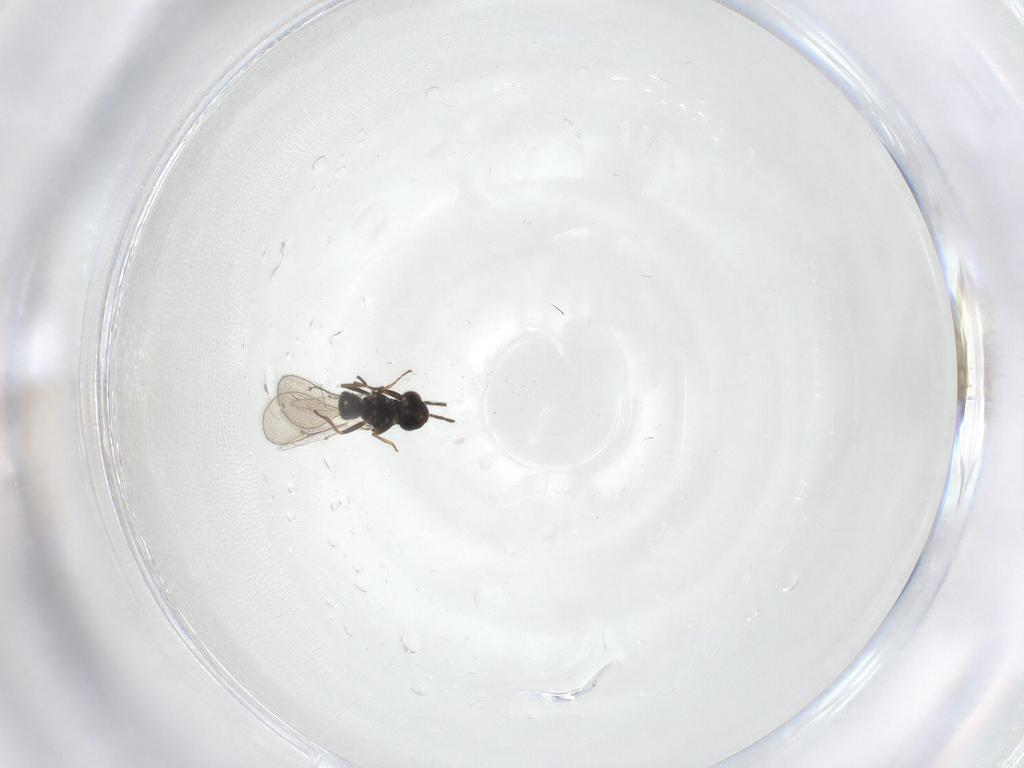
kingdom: Animalia
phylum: Arthropoda
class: Insecta
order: Hymenoptera
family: Eulophidae
